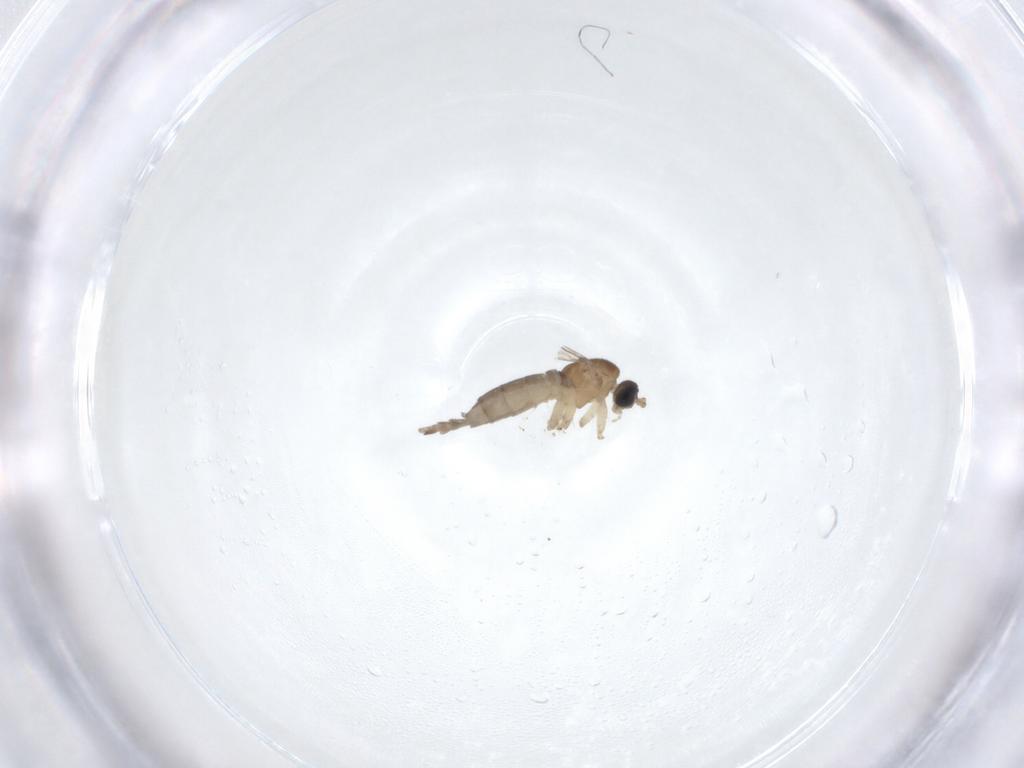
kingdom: Animalia
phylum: Arthropoda
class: Insecta
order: Diptera
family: Sciaridae
